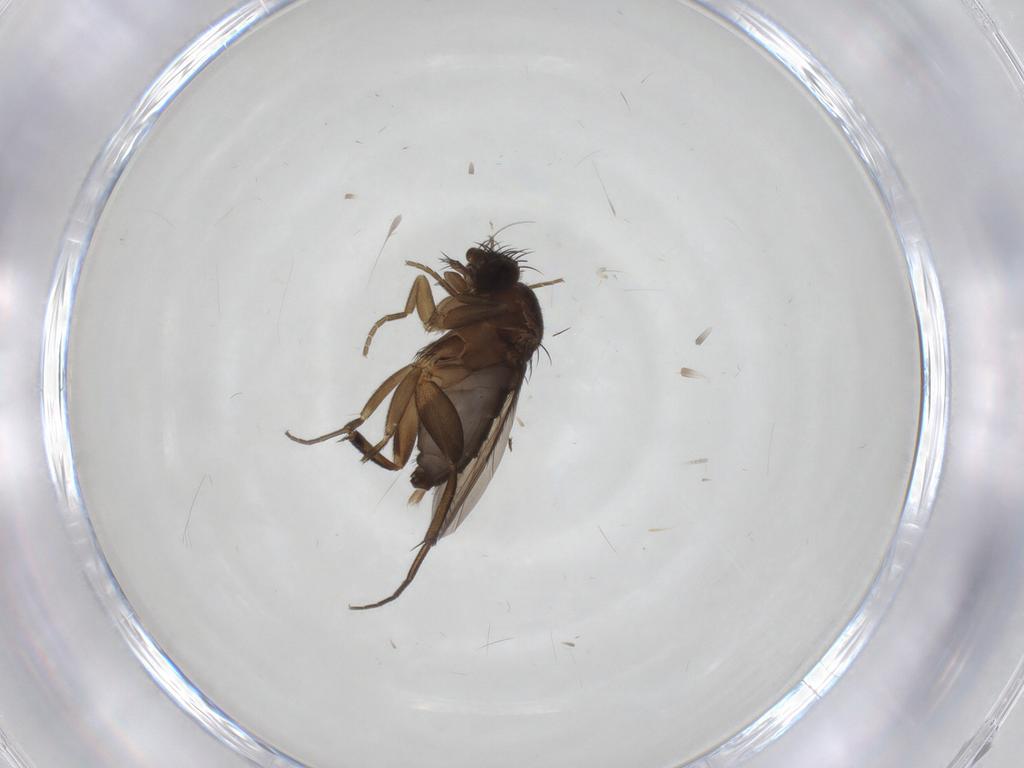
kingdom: Animalia
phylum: Arthropoda
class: Insecta
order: Diptera
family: Phoridae
